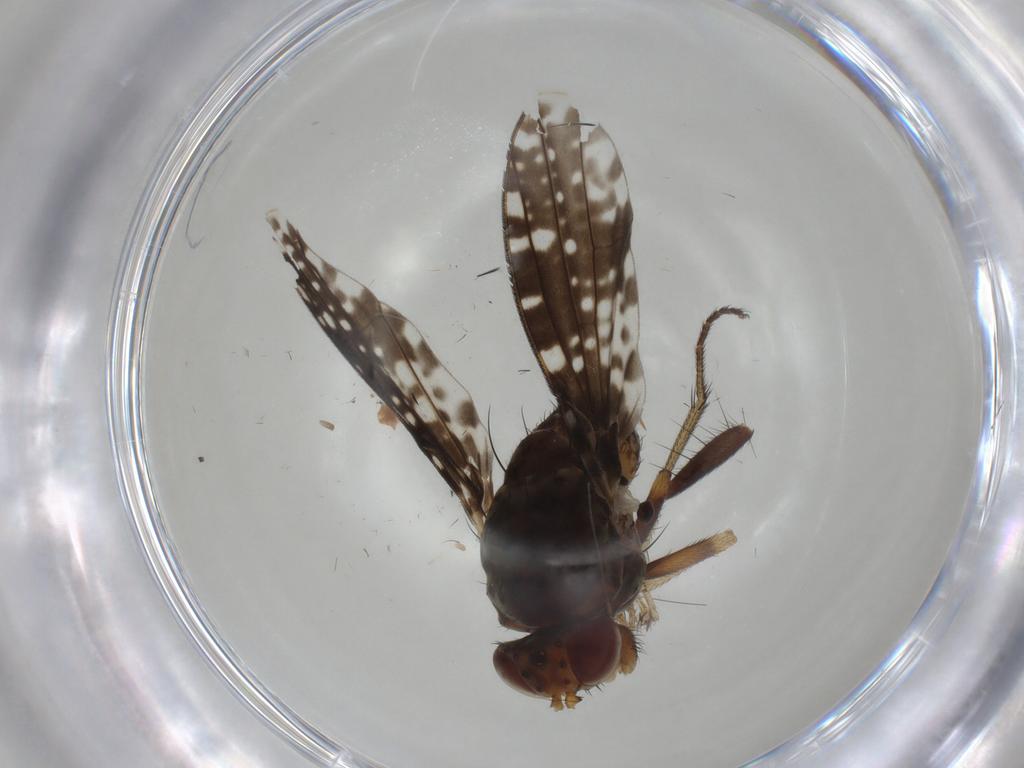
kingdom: Animalia
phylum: Arthropoda
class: Insecta
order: Diptera
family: Lauxaniidae
